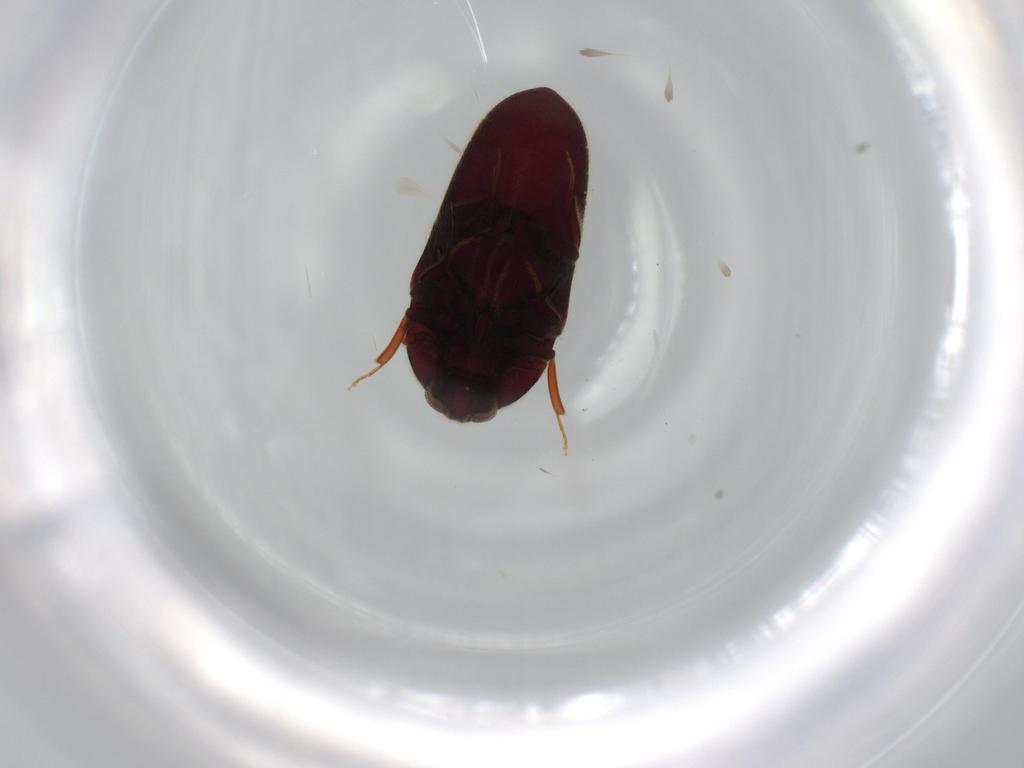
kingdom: Animalia
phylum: Arthropoda
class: Insecta
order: Coleoptera
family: Throscidae
